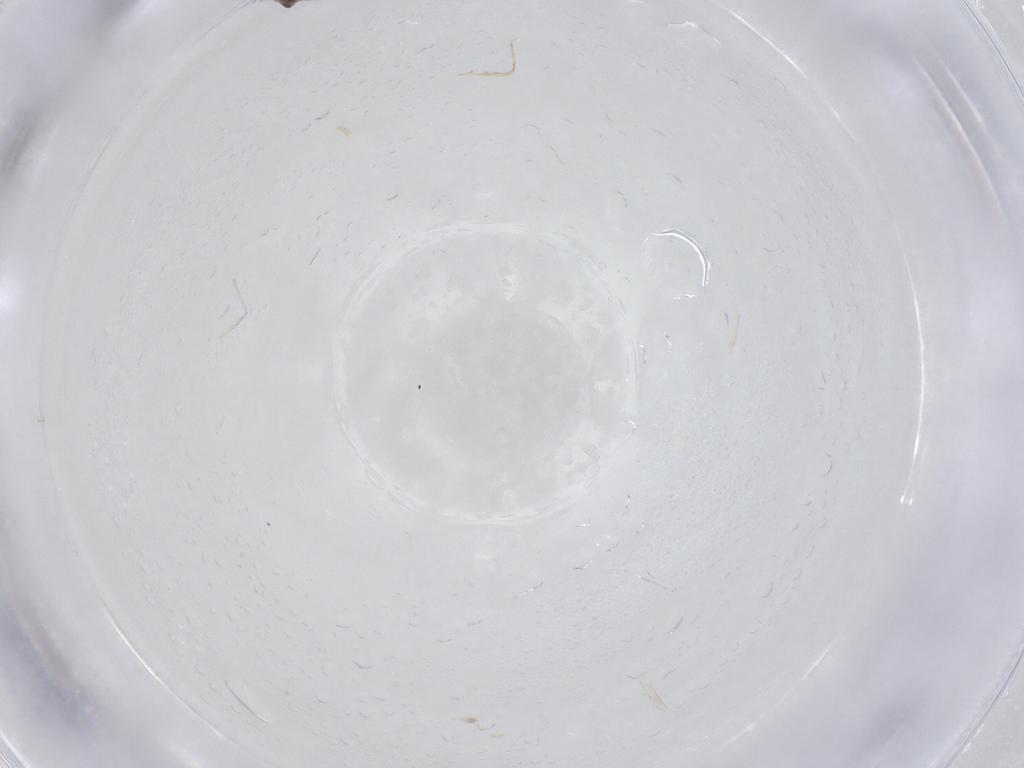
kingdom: Animalia
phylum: Arthropoda
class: Insecta
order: Diptera
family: Cecidomyiidae
